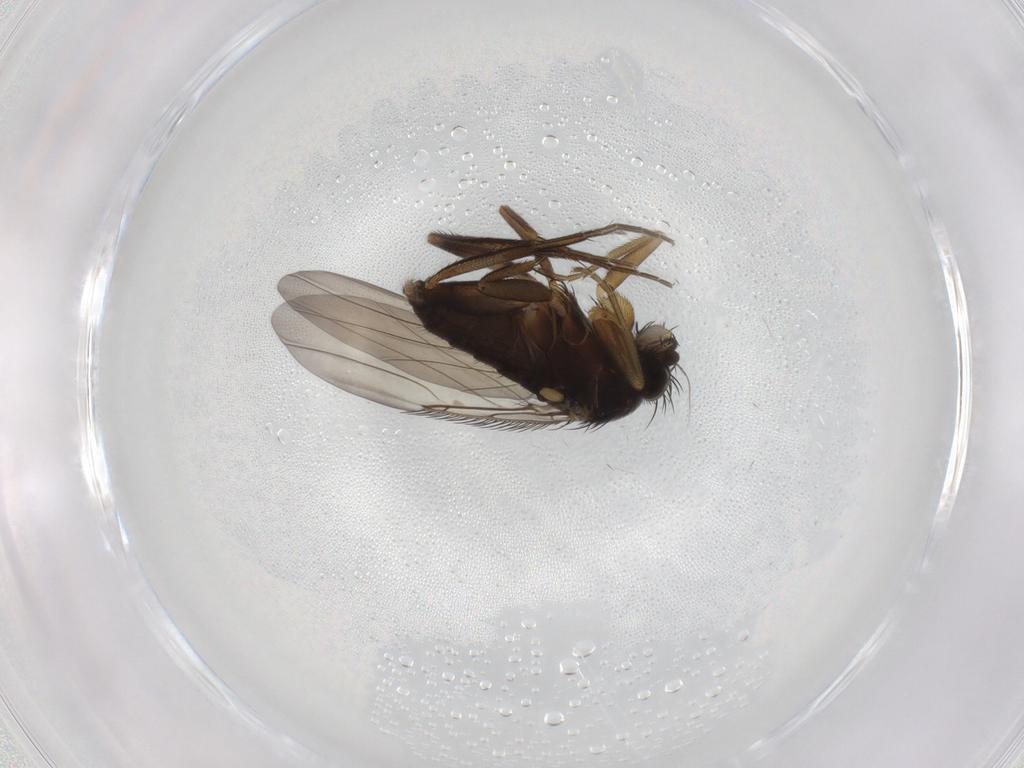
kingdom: Animalia
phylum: Arthropoda
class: Insecta
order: Diptera
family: Phoridae
